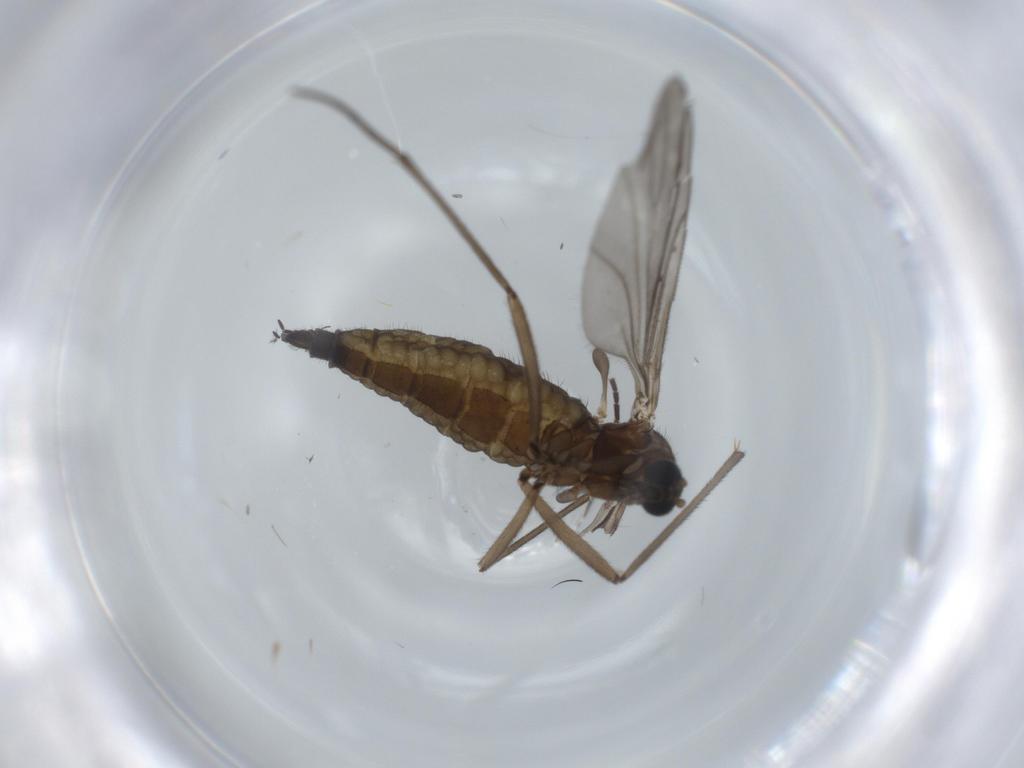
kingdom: Animalia
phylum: Arthropoda
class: Insecta
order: Diptera
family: Sciaridae
